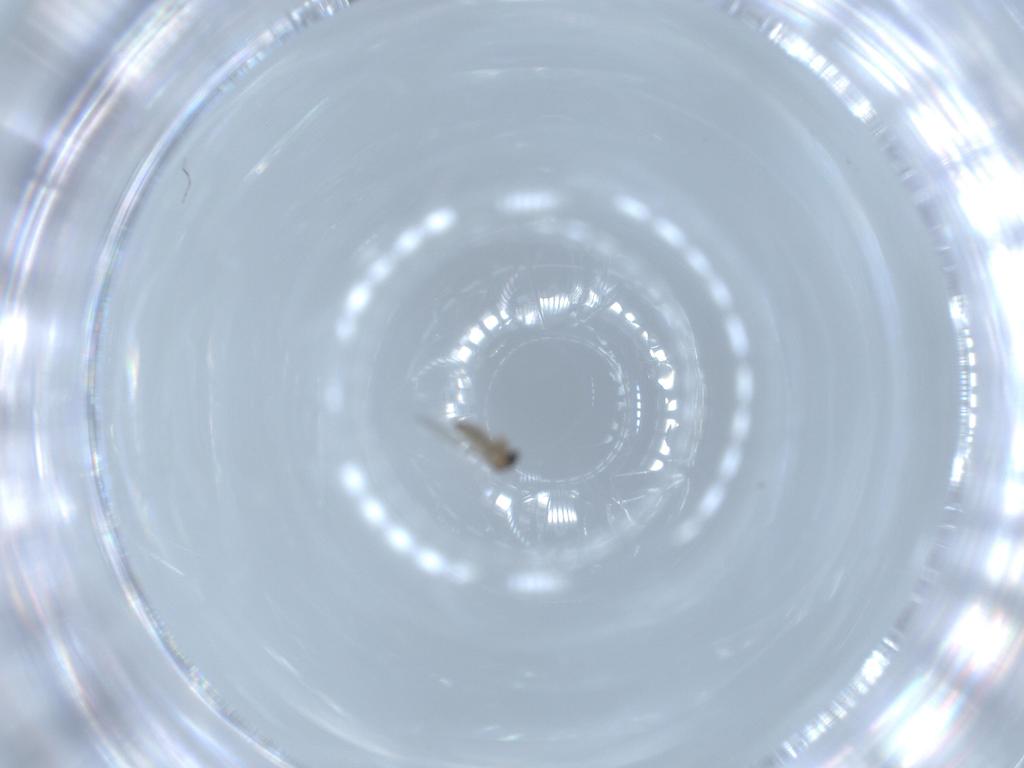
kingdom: Animalia
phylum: Arthropoda
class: Insecta
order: Diptera
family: Cecidomyiidae
